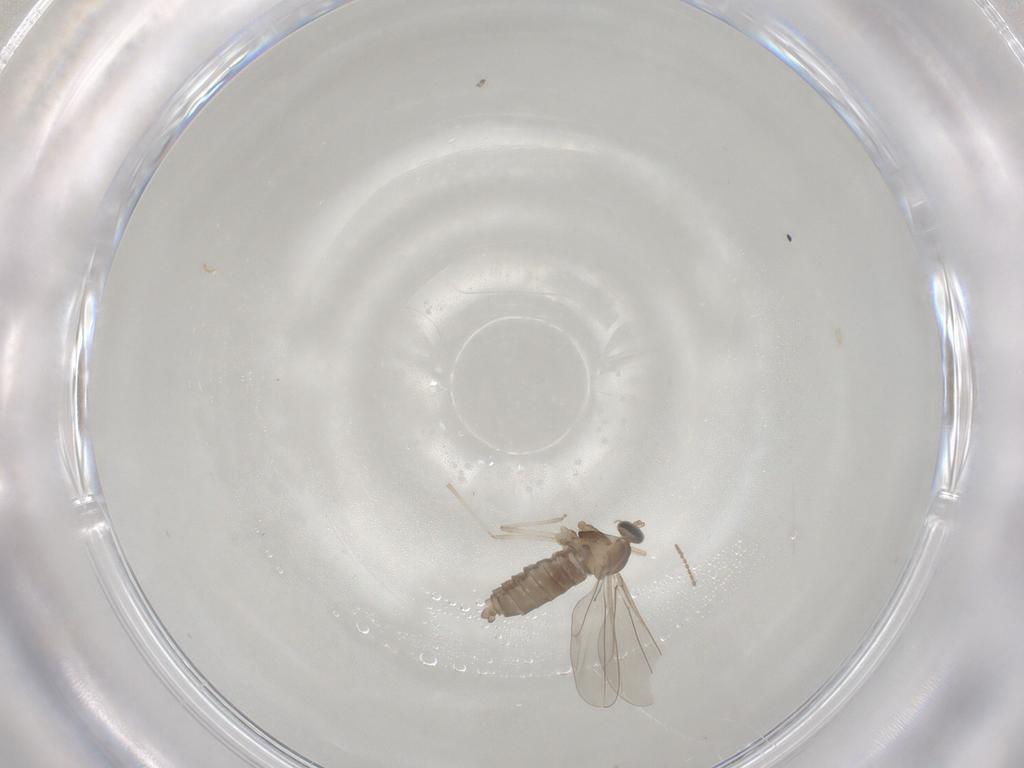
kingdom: Animalia
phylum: Arthropoda
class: Insecta
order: Diptera
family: Cecidomyiidae
